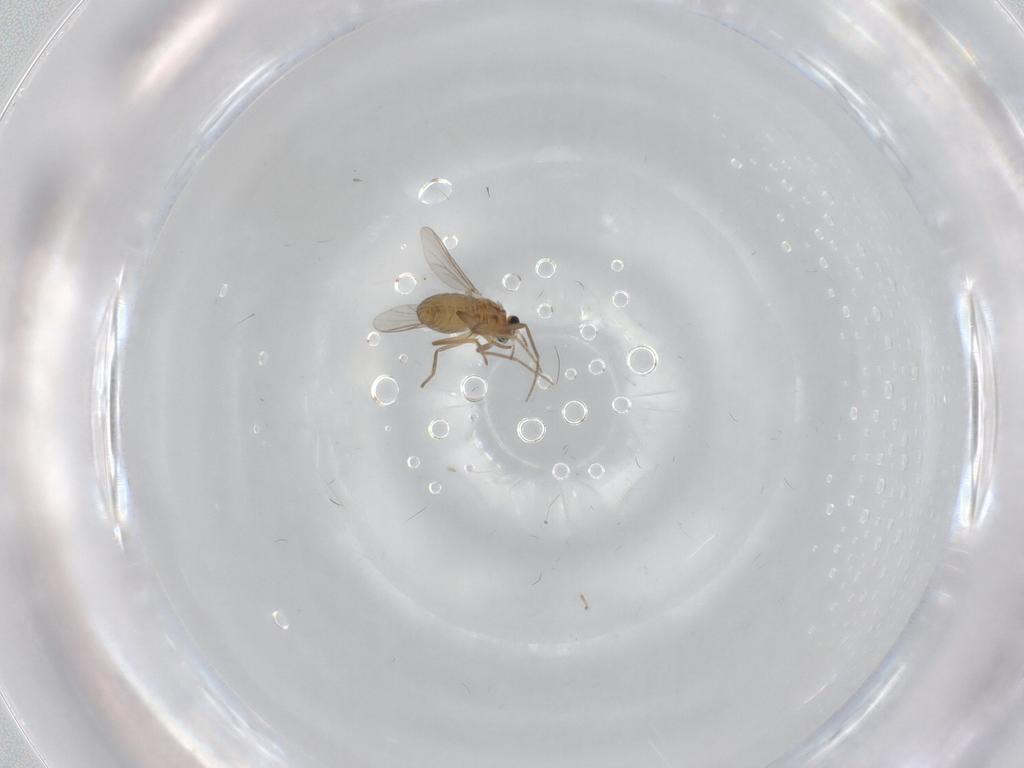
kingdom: Animalia
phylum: Arthropoda
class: Insecta
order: Diptera
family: Chironomidae
